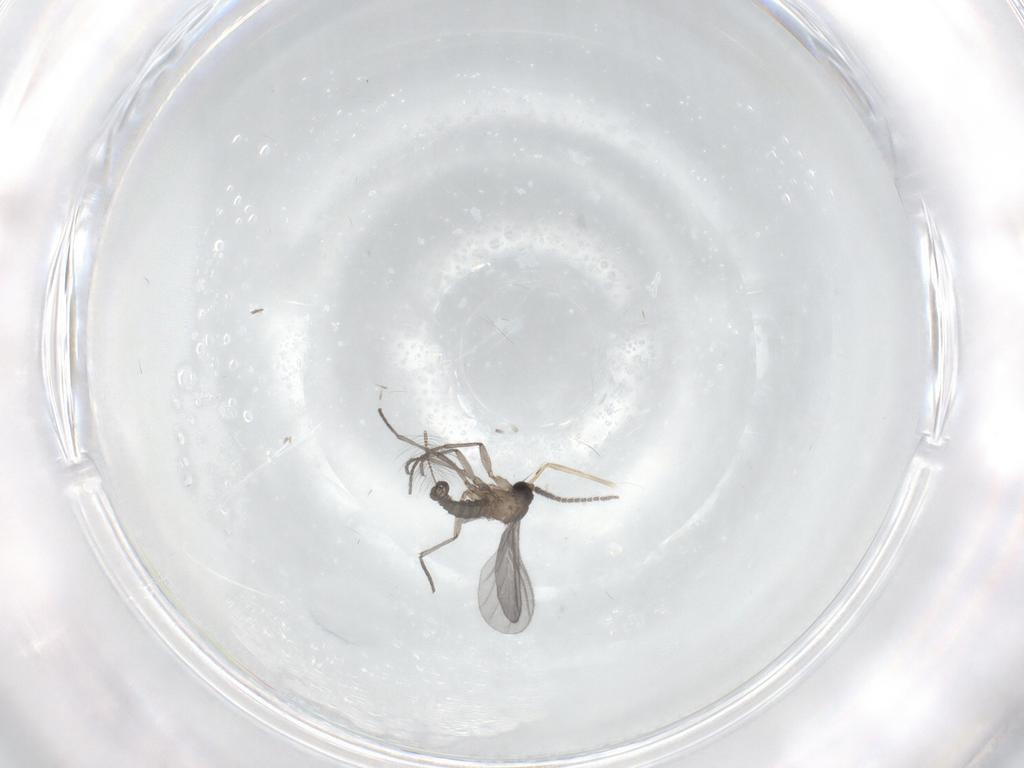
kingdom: Animalia
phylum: Arthropoda
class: Insecta
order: Diptera
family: Sciaridae
